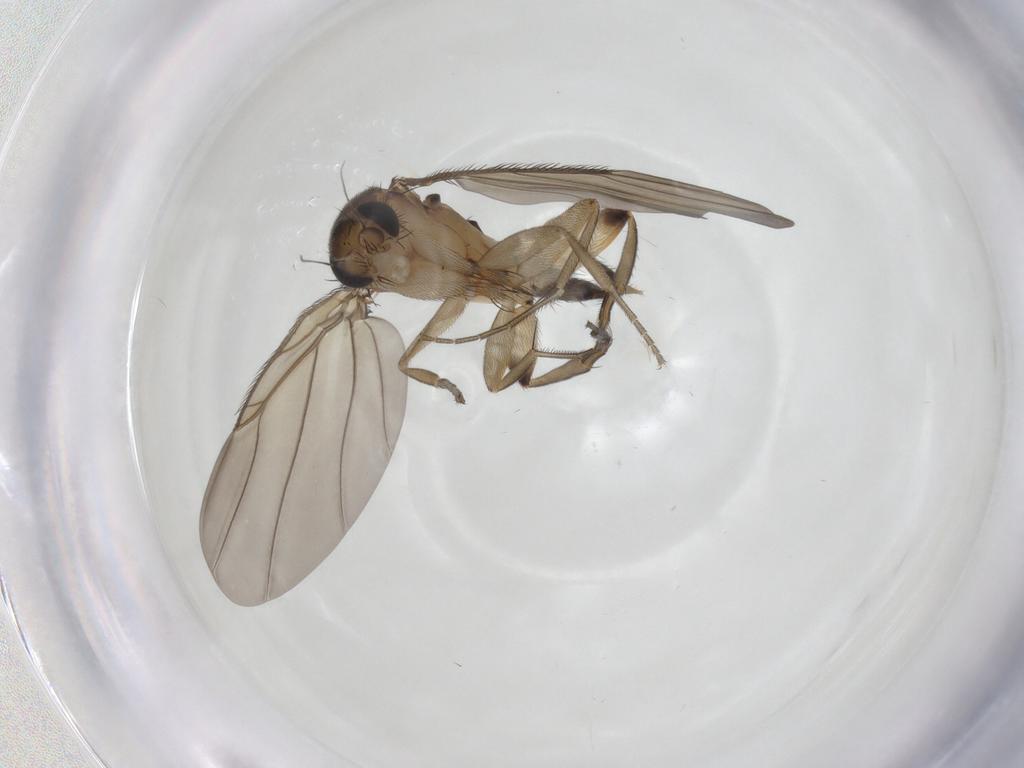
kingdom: Animalia
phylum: Arthropoda
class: Insecta
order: Diptera
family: Phoridae
